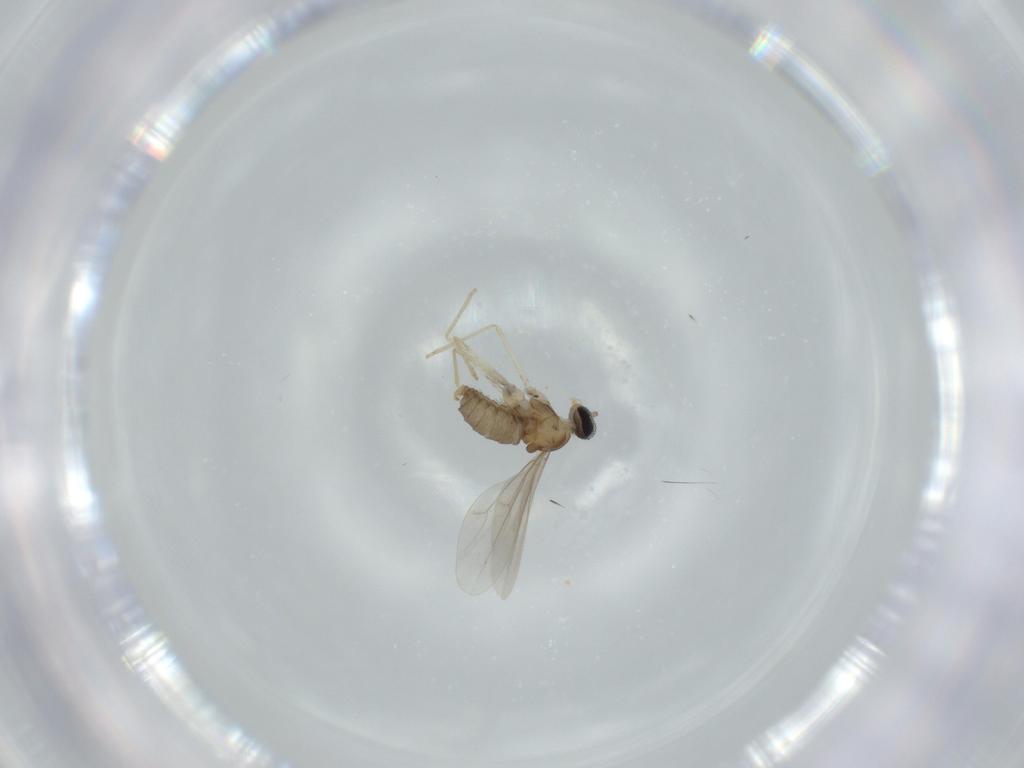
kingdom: Animalia
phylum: Arthropoda
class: Insecta
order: Diptera
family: Cecidomyiidae
